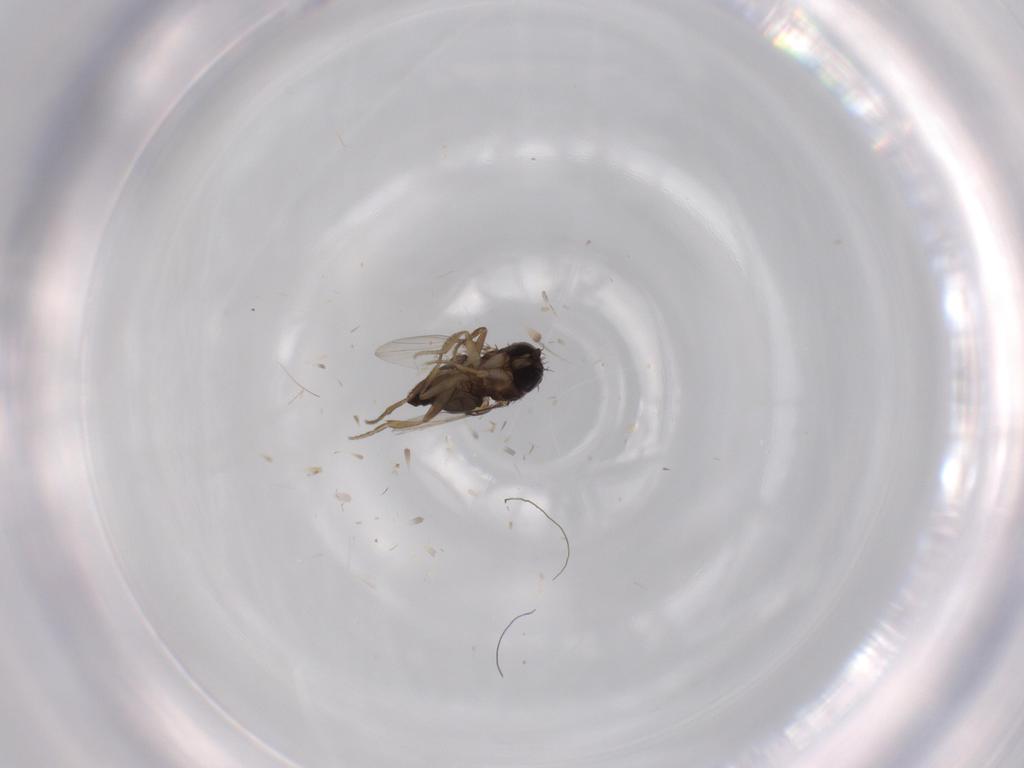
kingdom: Animalia
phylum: Arthropoda
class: Insecta
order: Diptera
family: Phoridae
